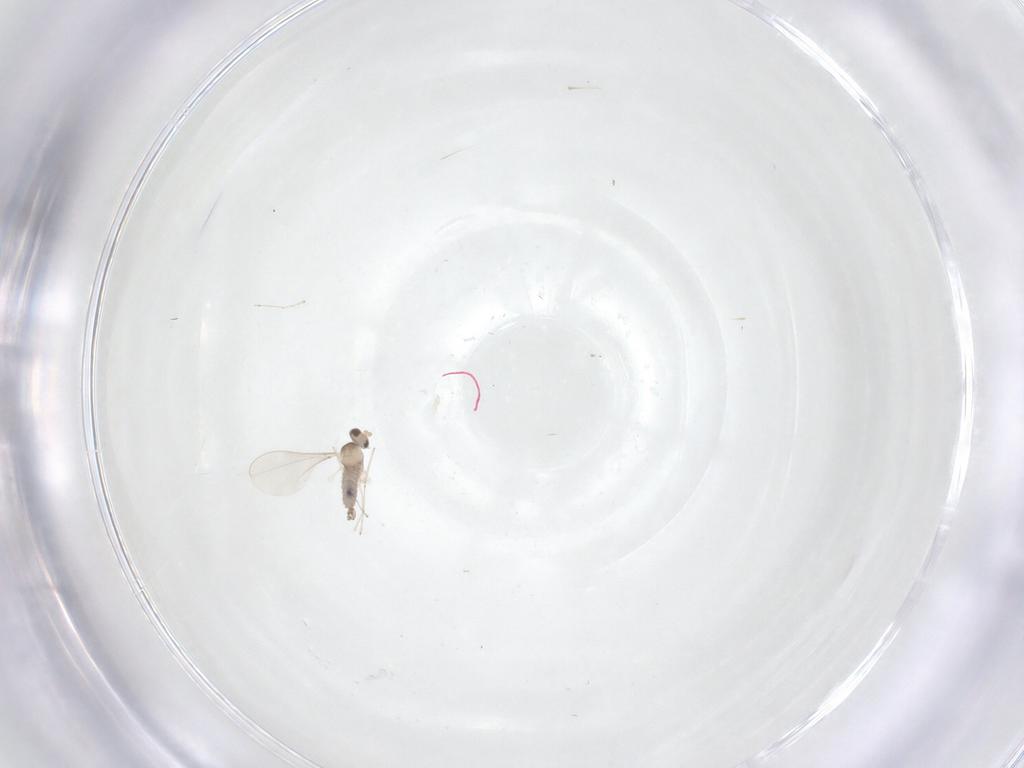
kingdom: Animalia
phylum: Arthropoda
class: Insecta
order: Diptera
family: Cecidomyiidae
